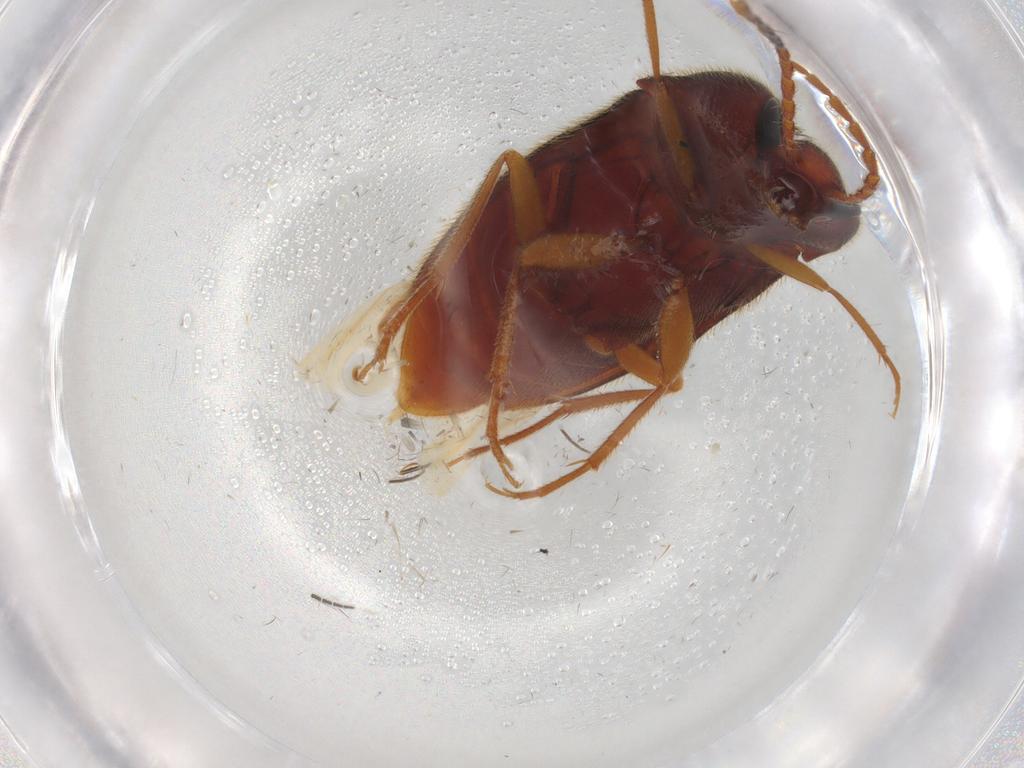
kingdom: Animalia
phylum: Arthropoda
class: Insecta
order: Coleoptera
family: Elateridae
